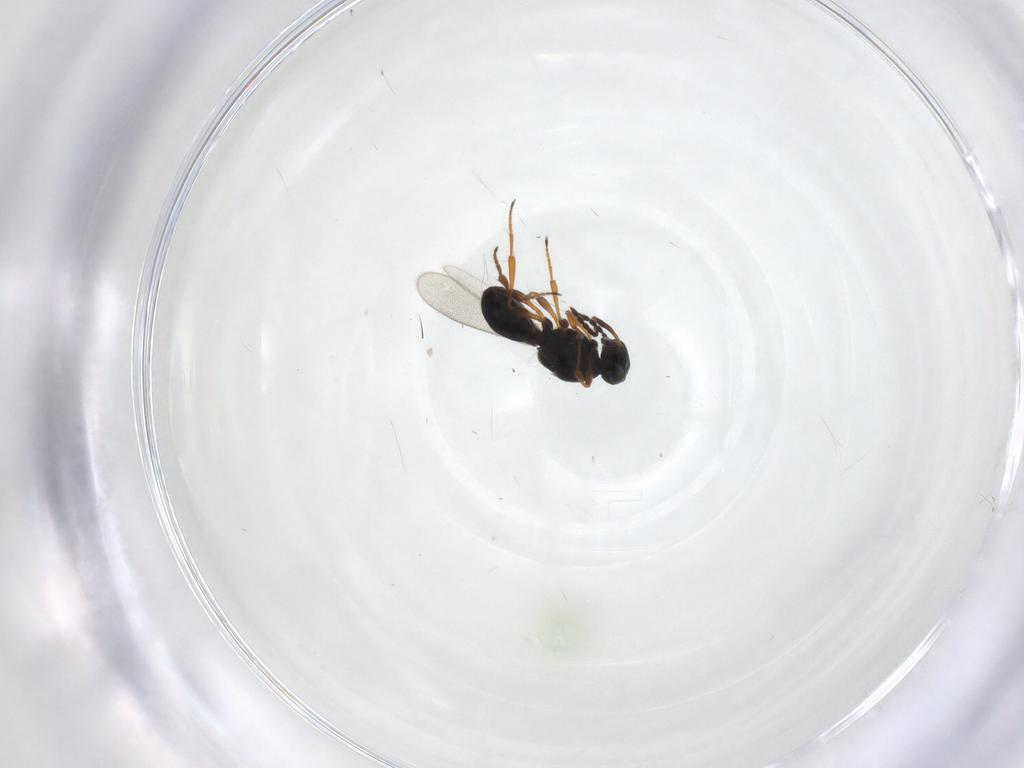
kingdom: Animalia
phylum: Arthropoda
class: Insecta
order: Hymenoptera
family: Platygastridae
